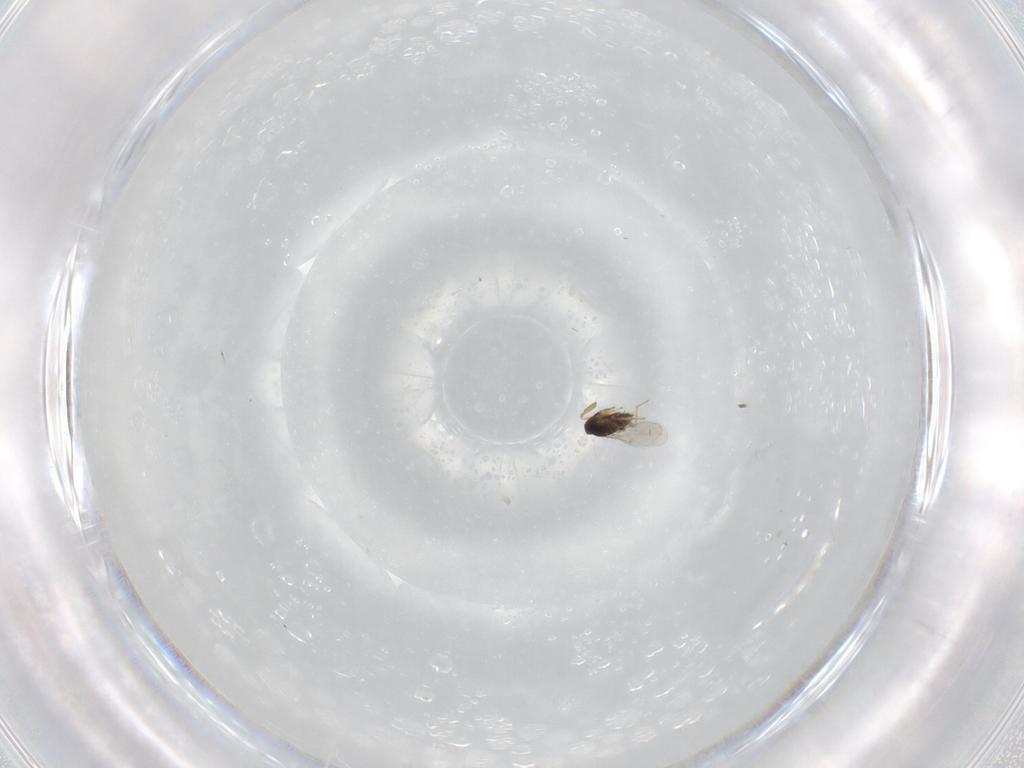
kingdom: Animalia
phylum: Arthropoda
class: Insecta
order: Hymenoptera
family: Encyrtidae
